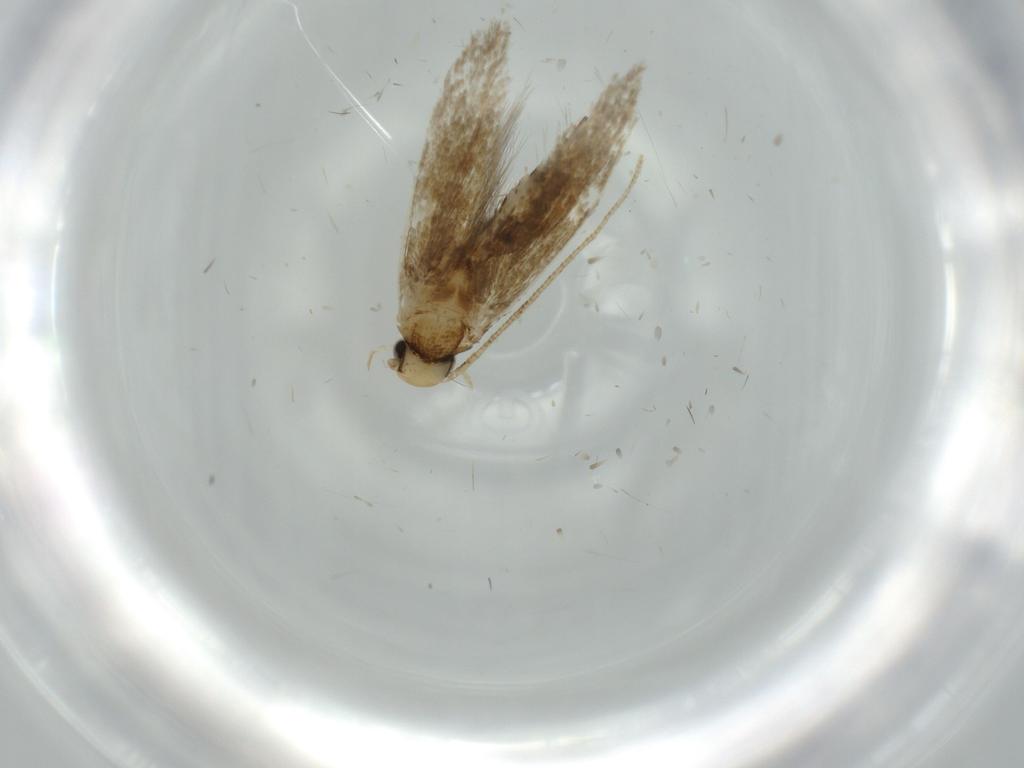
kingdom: Animalia
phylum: Arthropoda
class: Insecta
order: Lepidoptera
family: Tineidae
